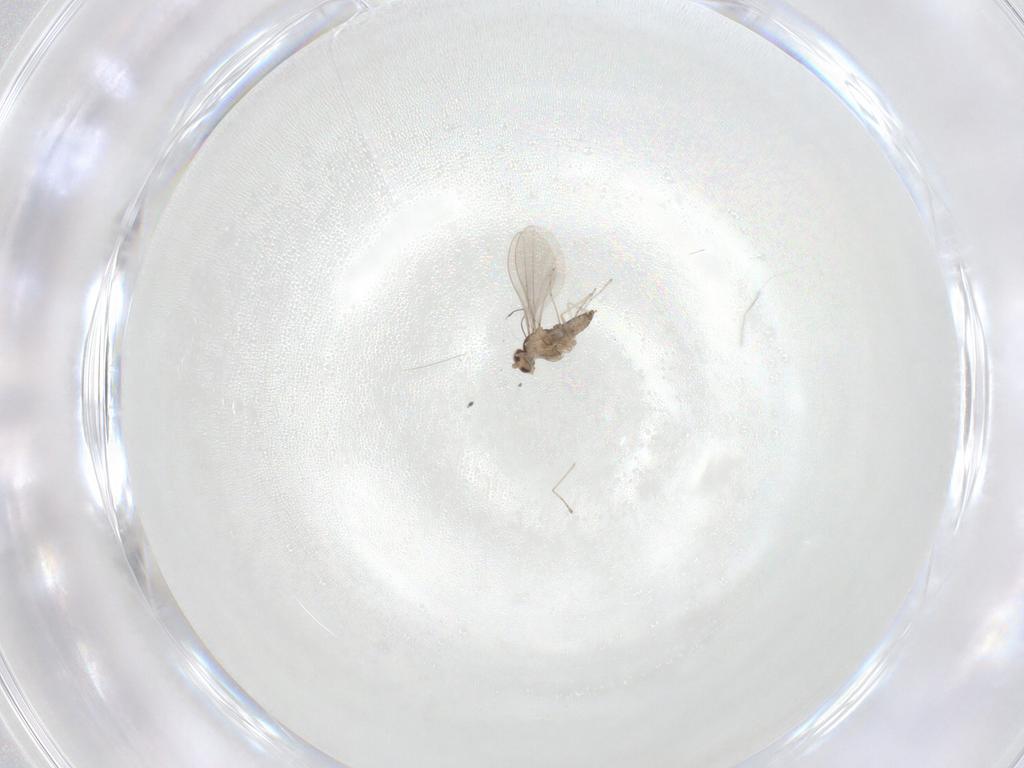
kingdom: Animalia
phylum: Arthropoda
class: Insecta
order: Diptera
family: Cecidomyiidae
